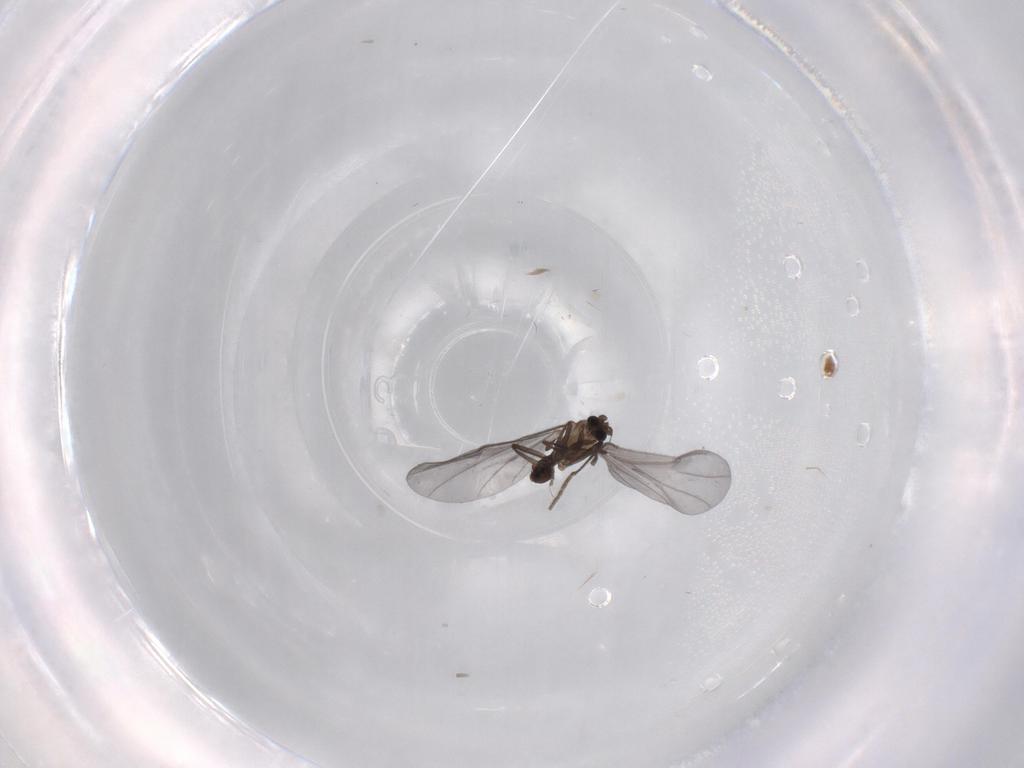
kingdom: Animalia
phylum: Arthropoda
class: Insecta
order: Diptera
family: Phoridae
